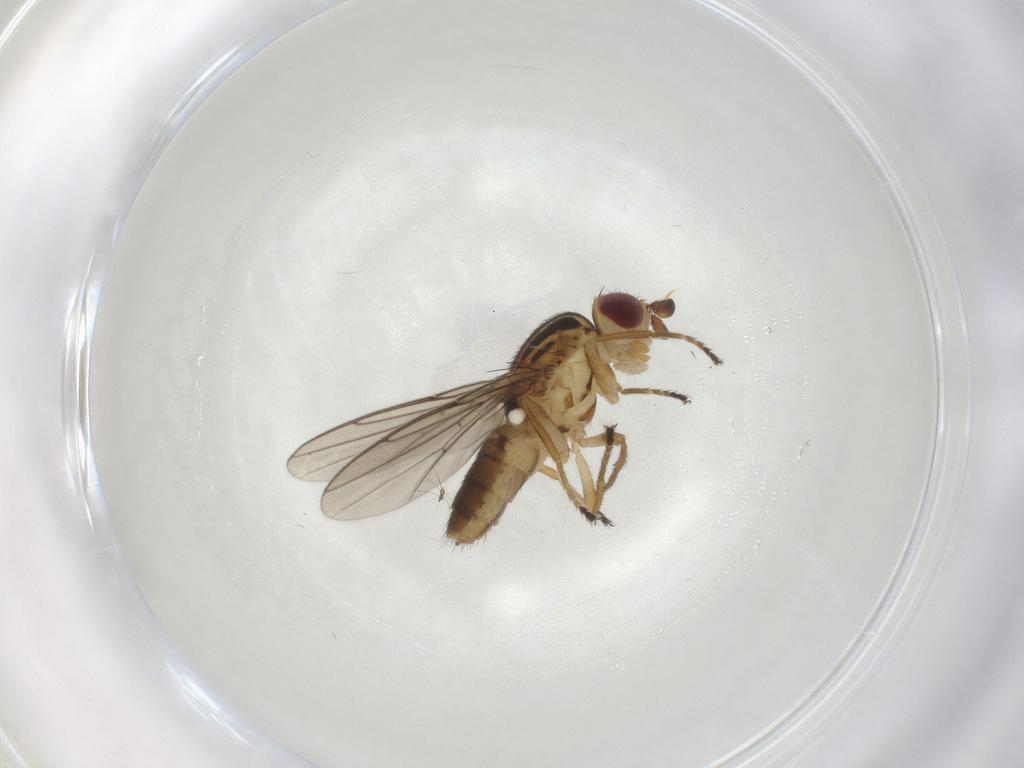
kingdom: Animalia
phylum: Arthropoda
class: Insecta
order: Diptera
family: Chloropidae
